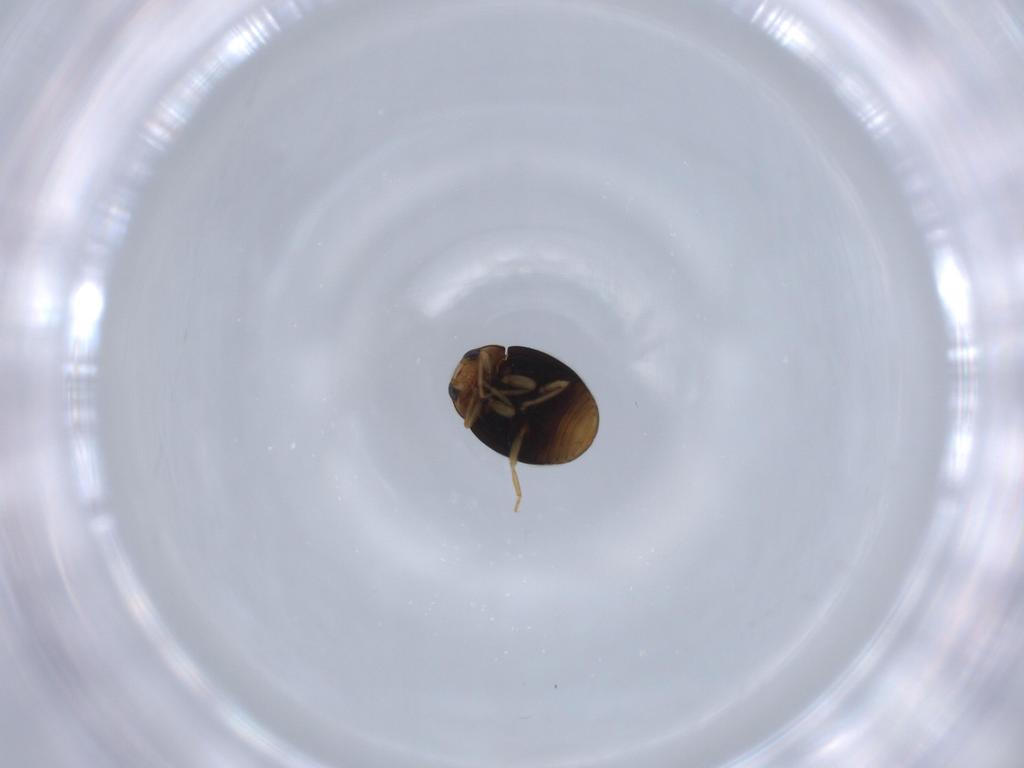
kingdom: Animalia
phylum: Arthropoda
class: Insecta
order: Coleoptera
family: Coccinellidae
